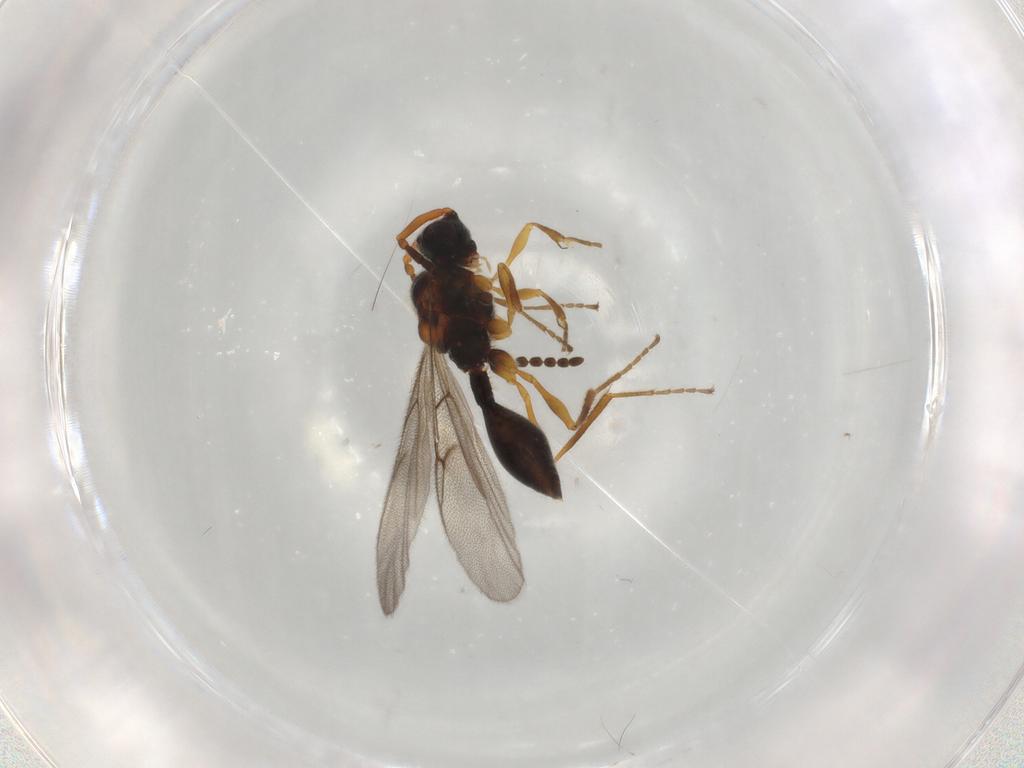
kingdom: Animalia
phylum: Arthropoda
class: Insecta
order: Hymenoptera
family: Diapriidae
